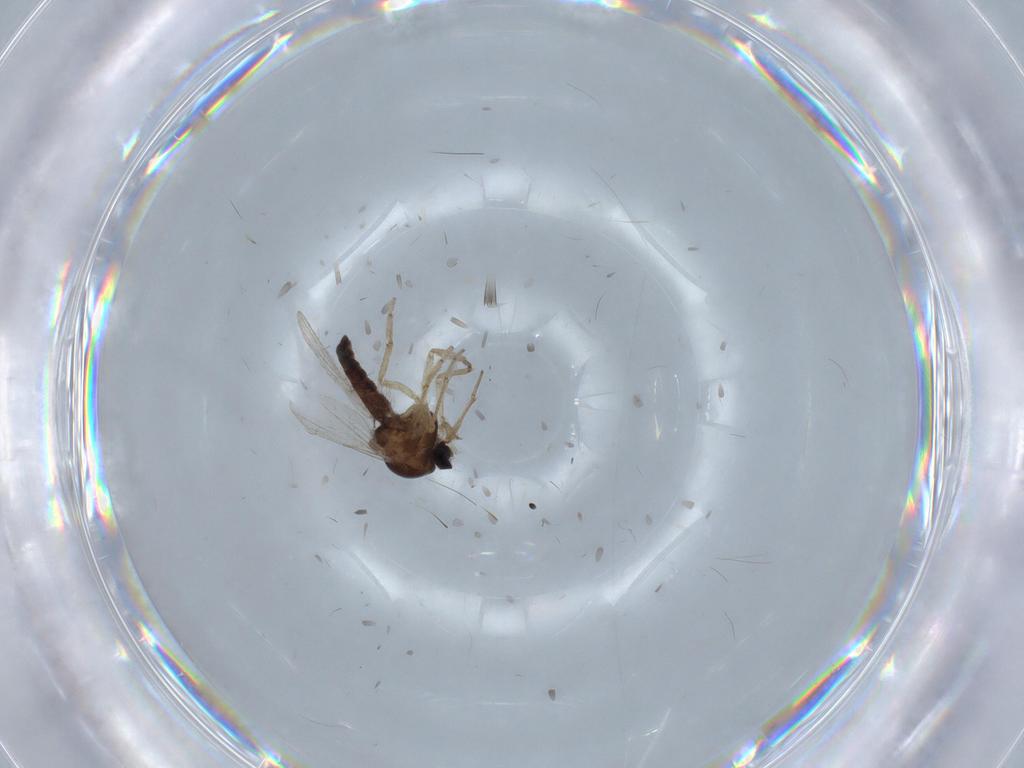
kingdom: Animalia
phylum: Arthropoda
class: Insecta
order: Diptera
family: Ceratopogonidae
